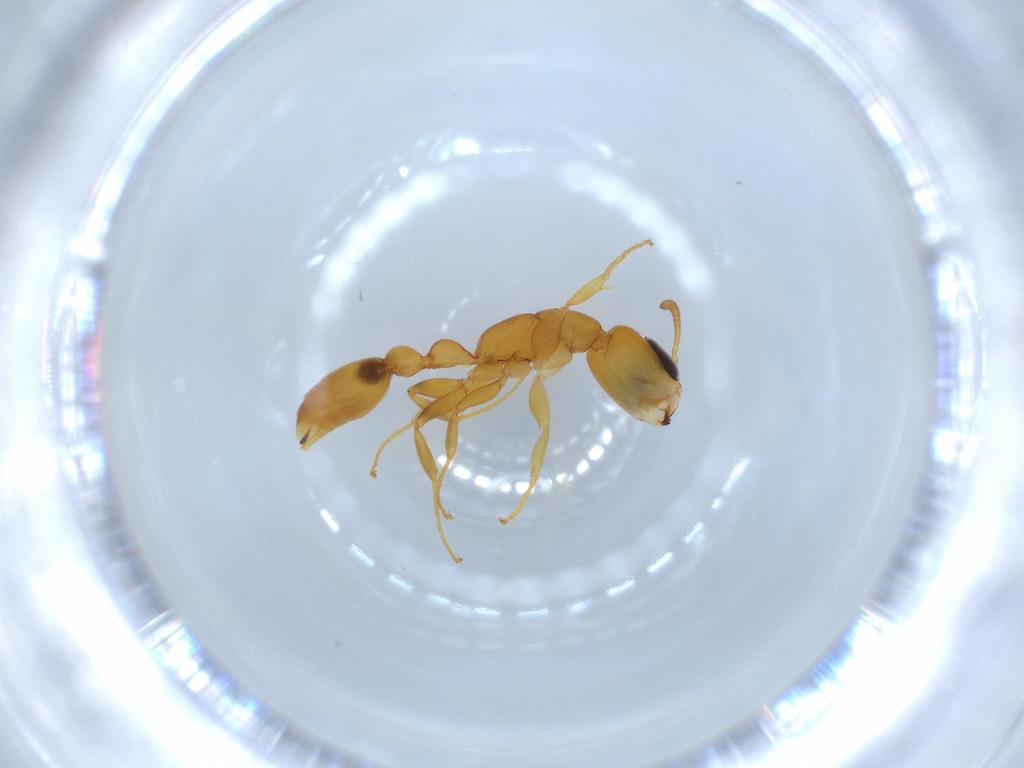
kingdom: Animalia
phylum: Arthropoda
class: Insecta
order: Hymenoptera
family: Formicidae
